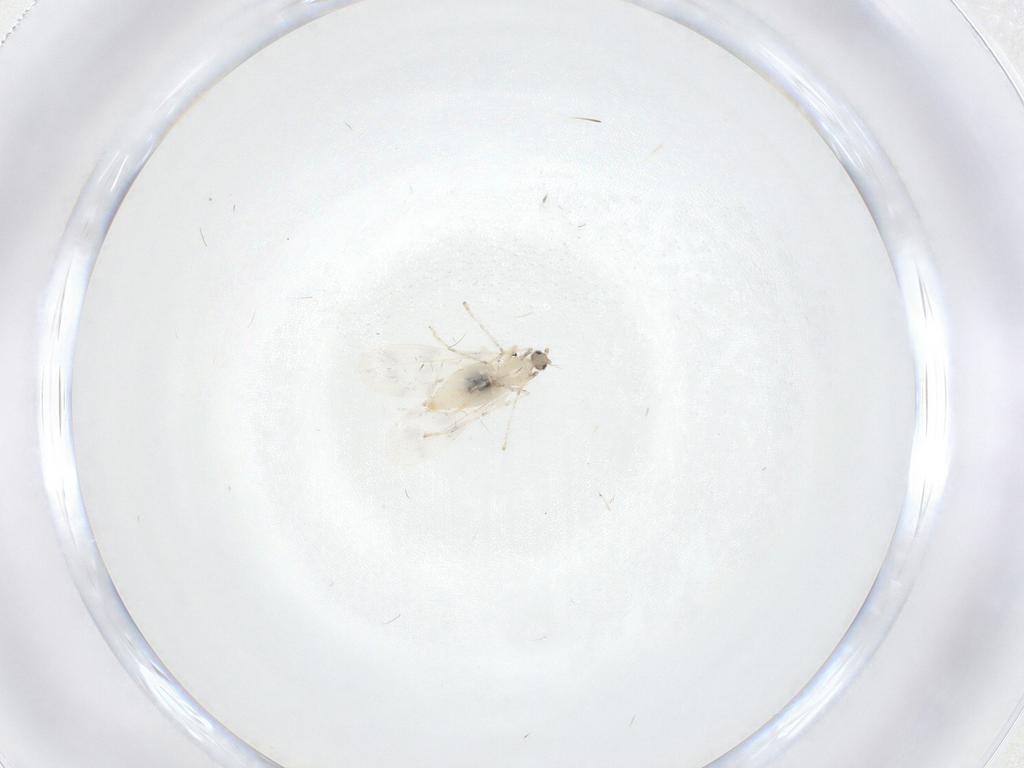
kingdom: Animalia
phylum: Arthropoda
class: Insecta
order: Diptera
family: Cecidomyiidae
